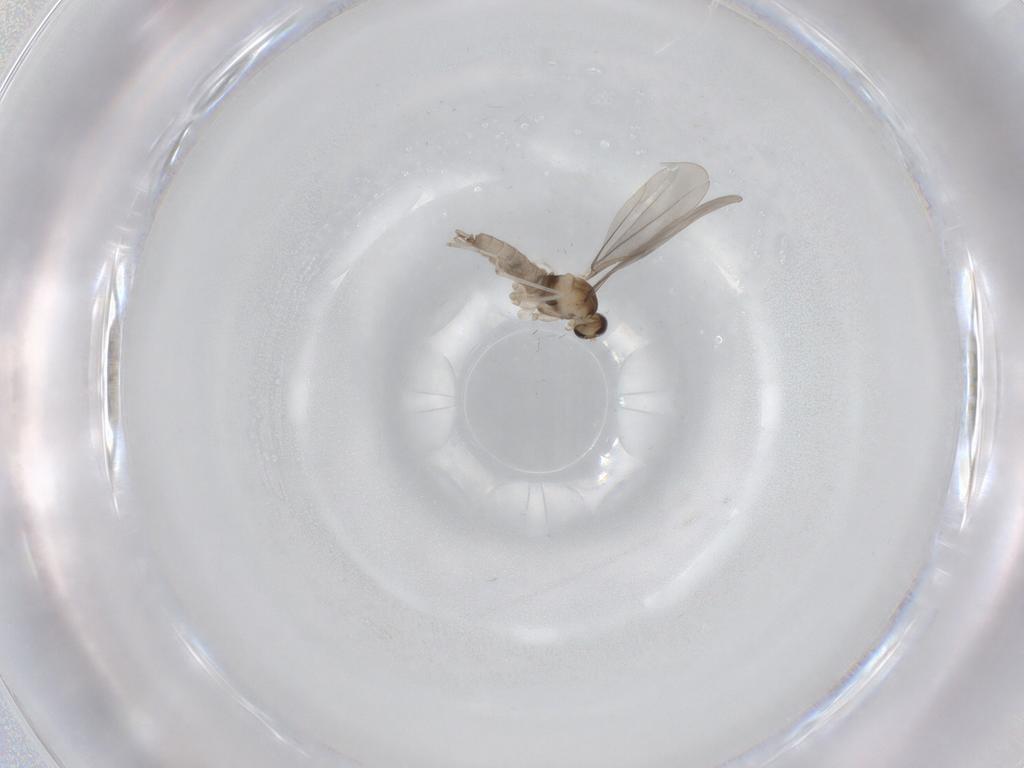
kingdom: Animalia
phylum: Arthropoda
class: Insecta
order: Diptera
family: Cecidomyiidae
